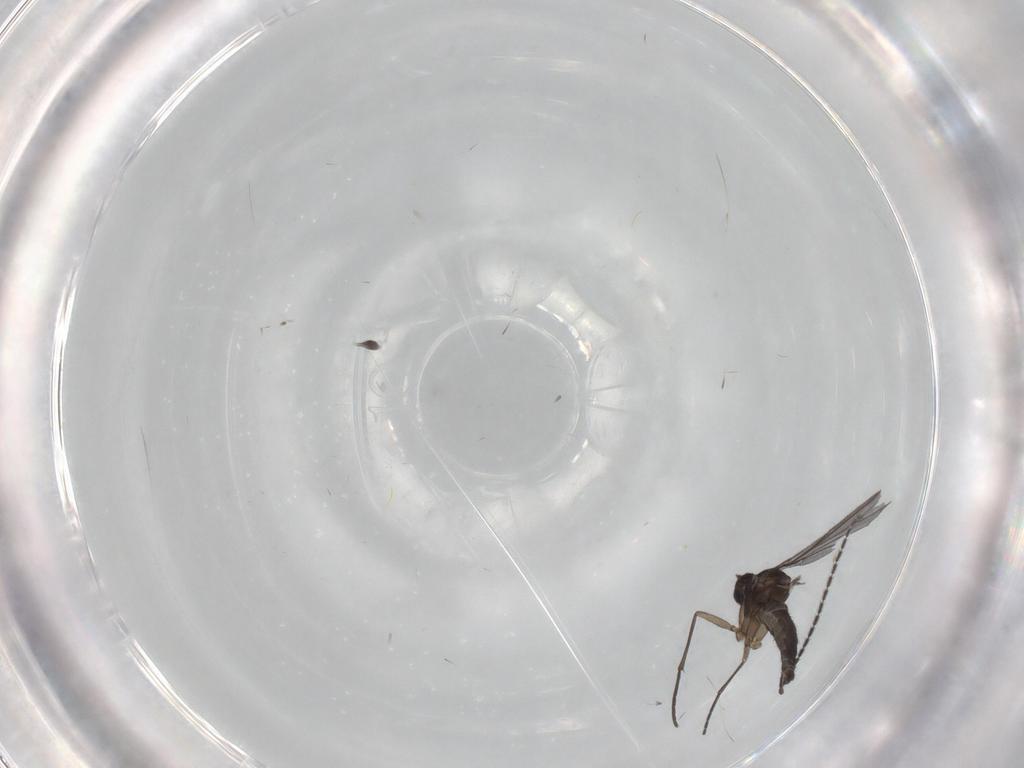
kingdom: Animalia
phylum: Arthropoda
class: Insecta
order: Diptera
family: Sciaridae
